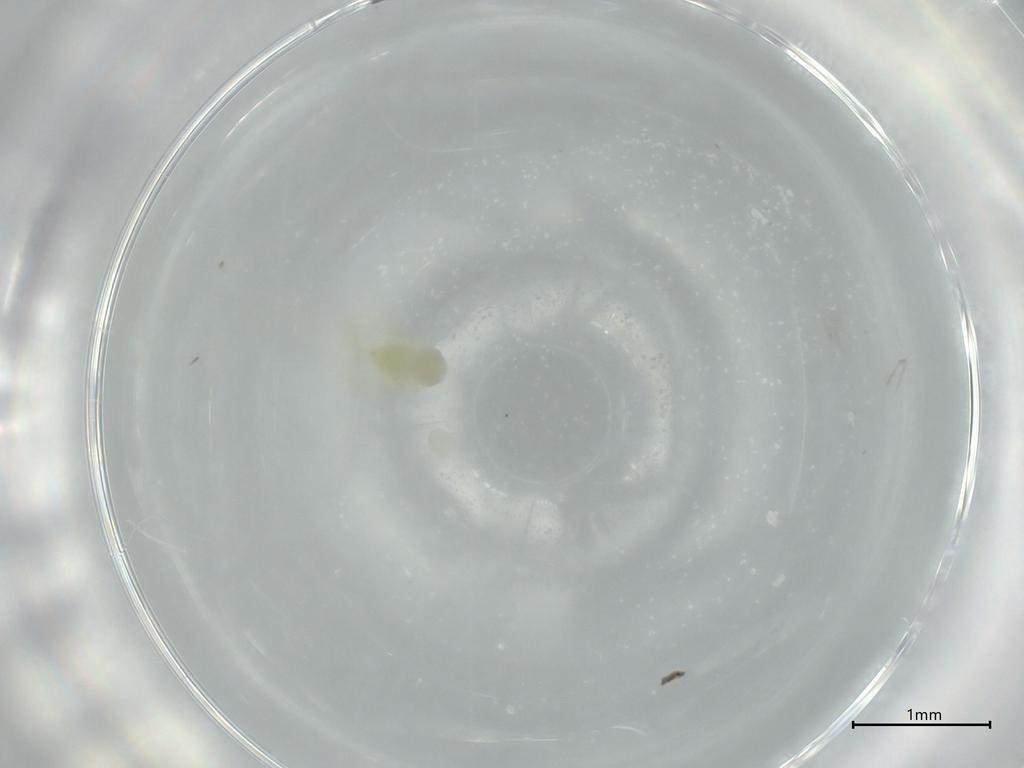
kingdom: Animalia
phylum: Arthropoda
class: Insecta
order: Hemiptera
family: Aleyrodidae
